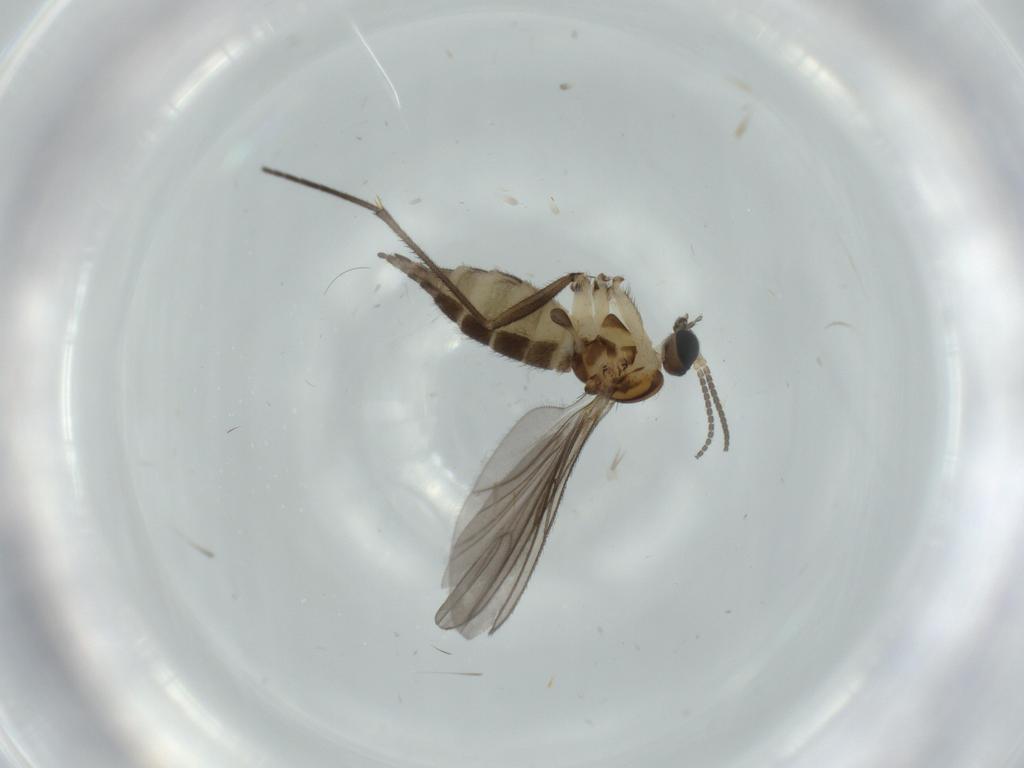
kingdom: Animalia
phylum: Arthropoda
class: Insecta
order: Diptera
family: Sciaridae
